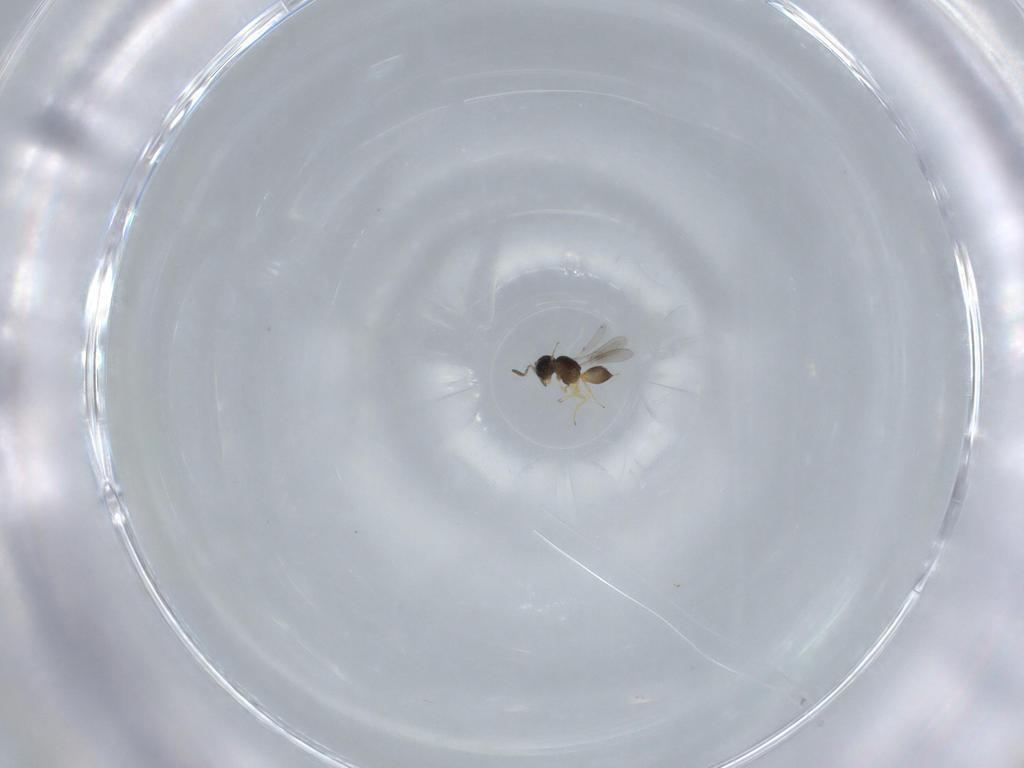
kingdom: Animalia
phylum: Arthropoda
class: Insecta
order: Hymenoptera
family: Scelionidae
